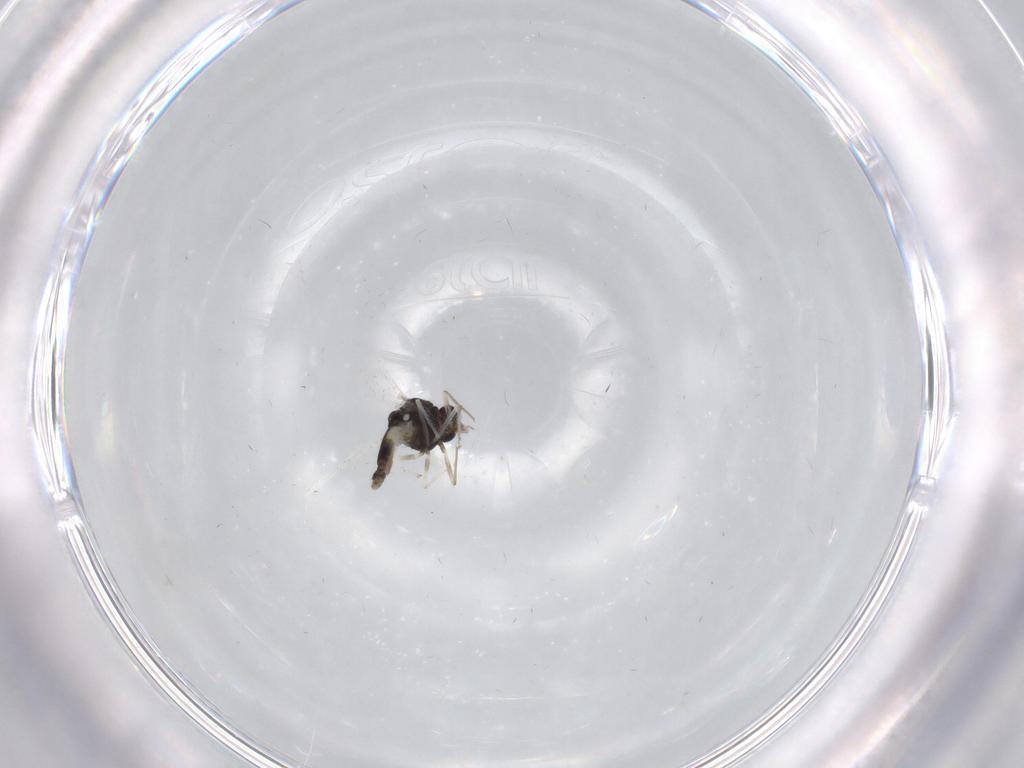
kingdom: Animalia
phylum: Arthropoda
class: Insecta
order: Diptera
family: Chironomidae
